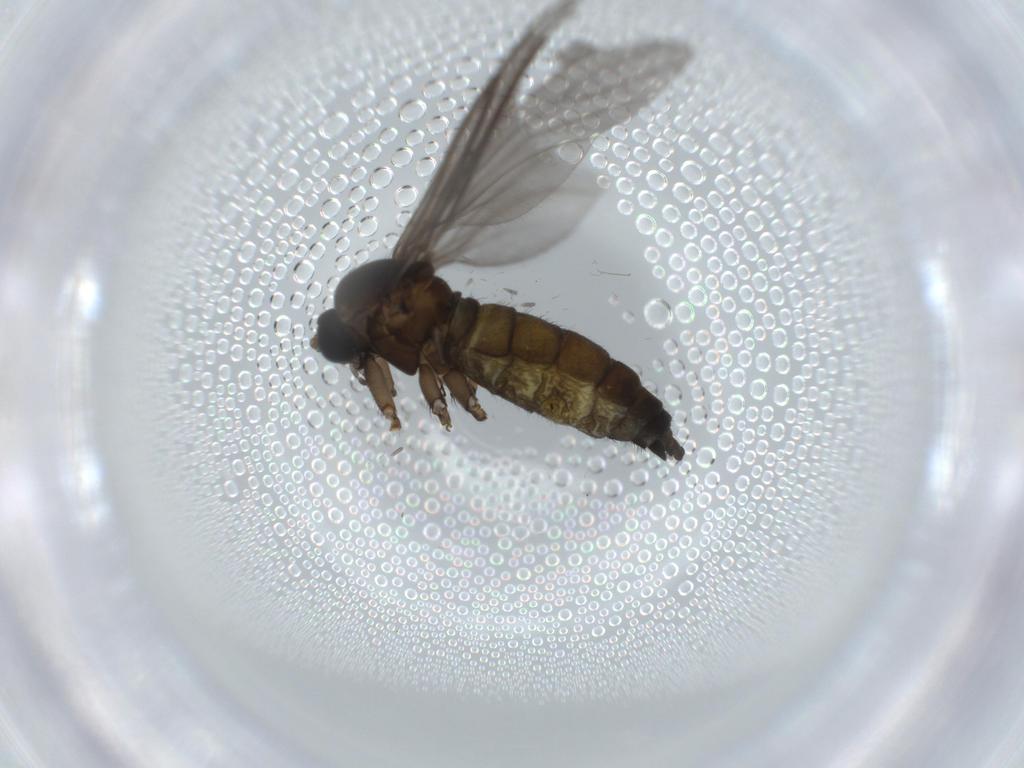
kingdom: Animalia
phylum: Arthropoda
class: Insecta
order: Diptera
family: Sciaridae
